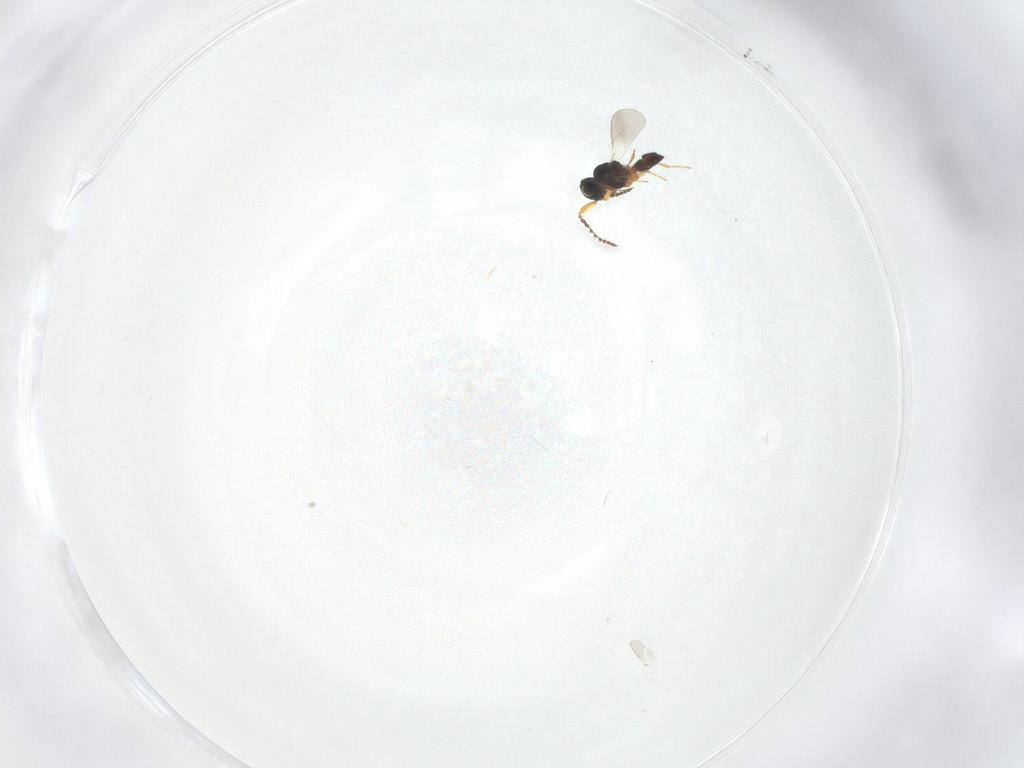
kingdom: Animalia
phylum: Arthropoda
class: Insecta
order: Hymenoptera
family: Platygastridae
